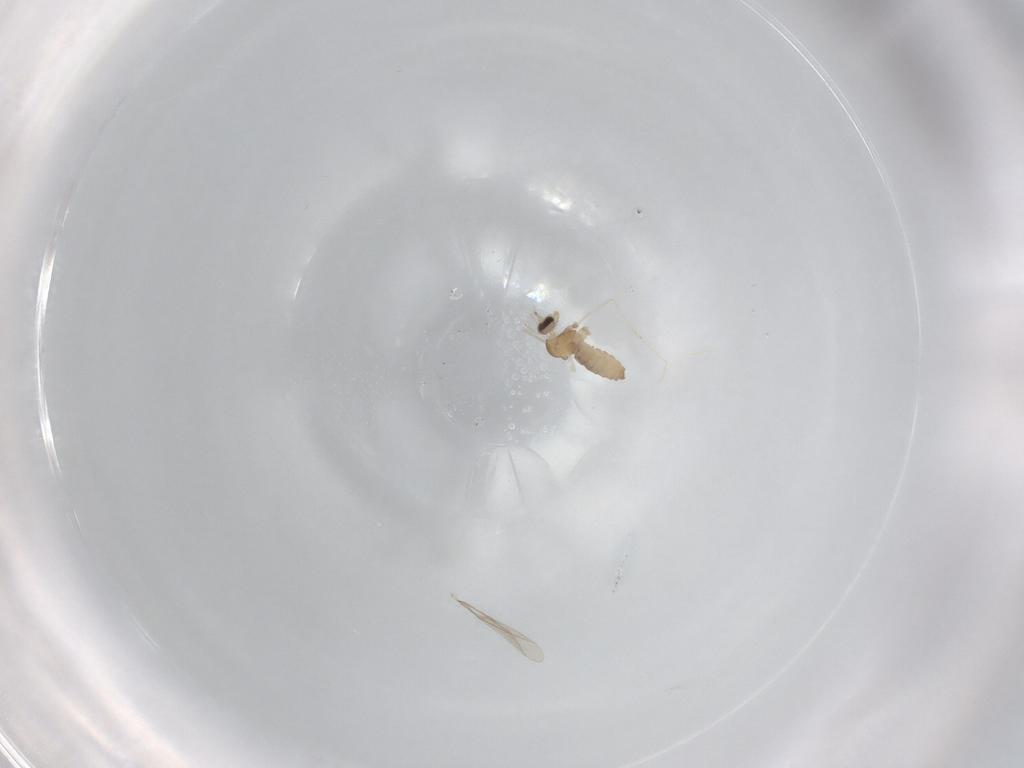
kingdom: Animalia
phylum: Arthropoda
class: Insecta
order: Diptera
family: Cecidomyiidae
